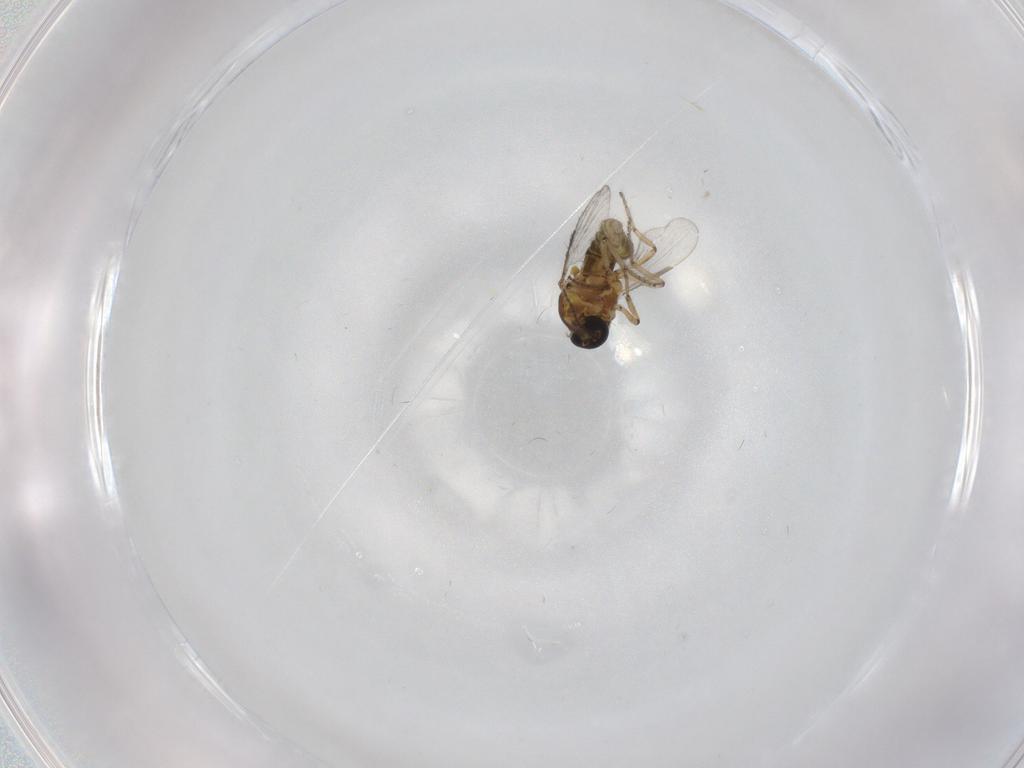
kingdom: Animalia
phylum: Arthropoda
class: Insecta
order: Diptera
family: Ceratopogonidae
